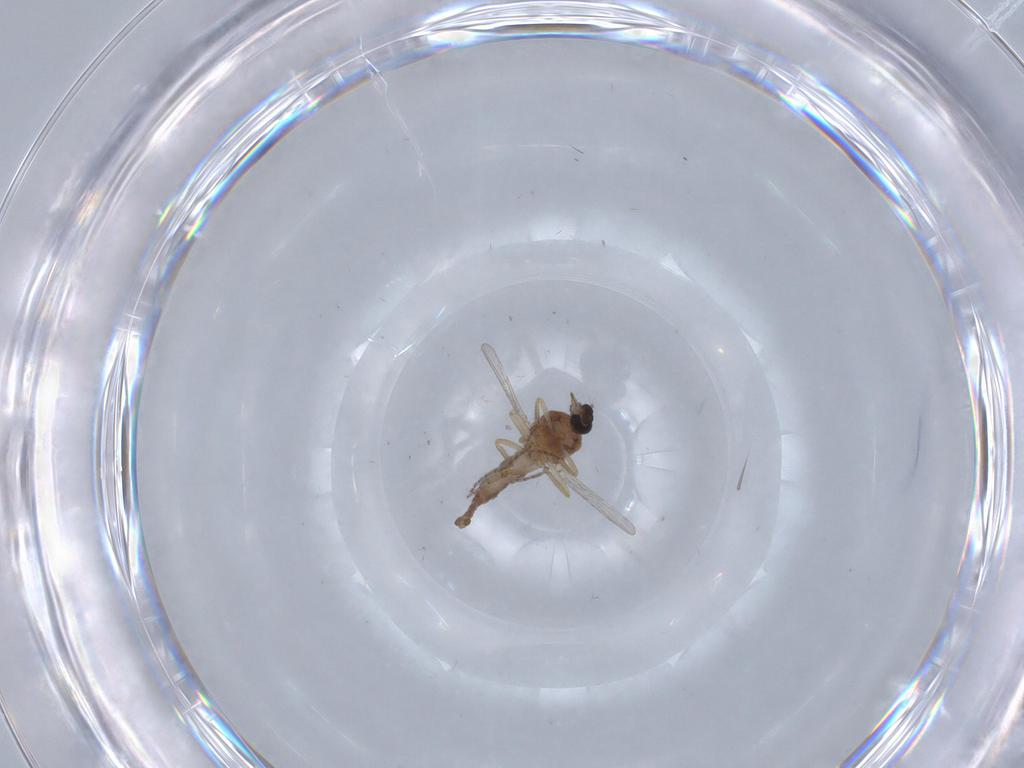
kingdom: Animalia
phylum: Arthropoda
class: Insecta
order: Diptera
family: Ceratopogonidae
